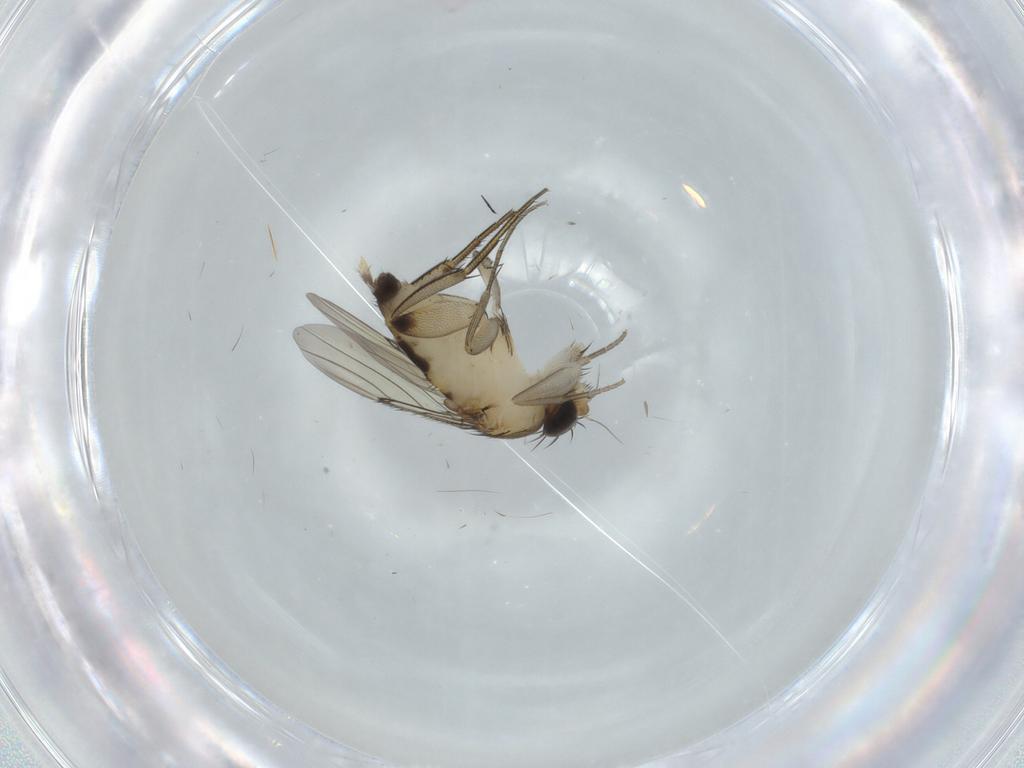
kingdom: Animalia
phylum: Arthropoda
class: Insecta
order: Diptera
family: Phoridae
